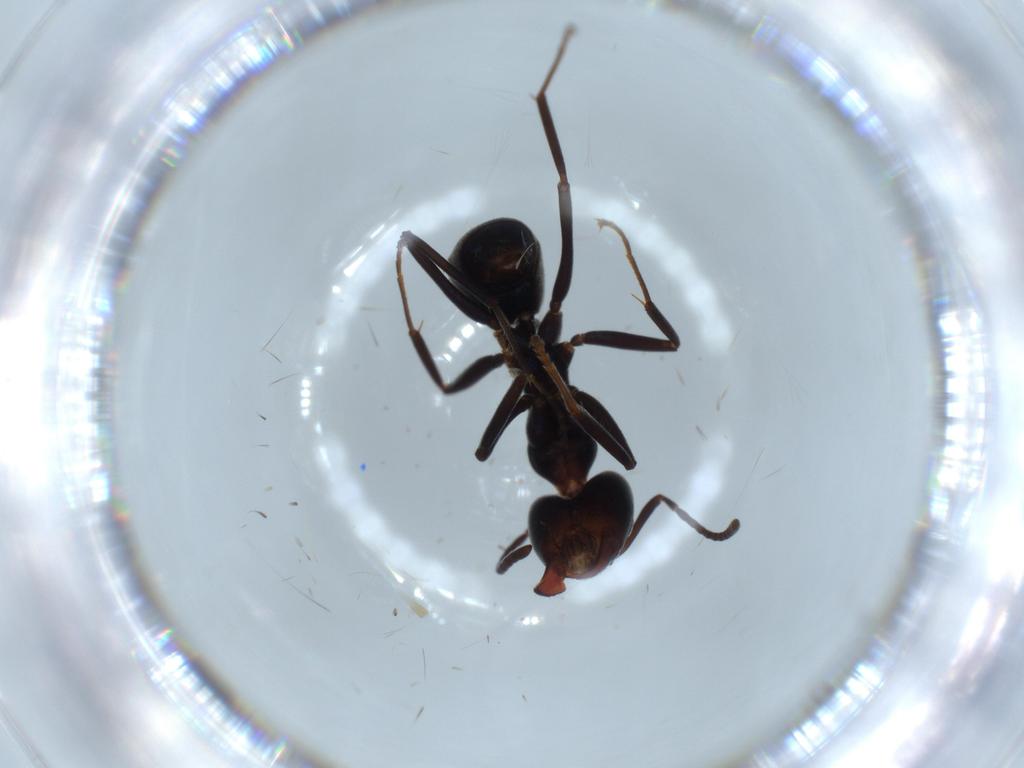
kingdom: Animalia
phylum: Arthropoda
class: Insecta
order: Hymenoptera
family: Formicidae
